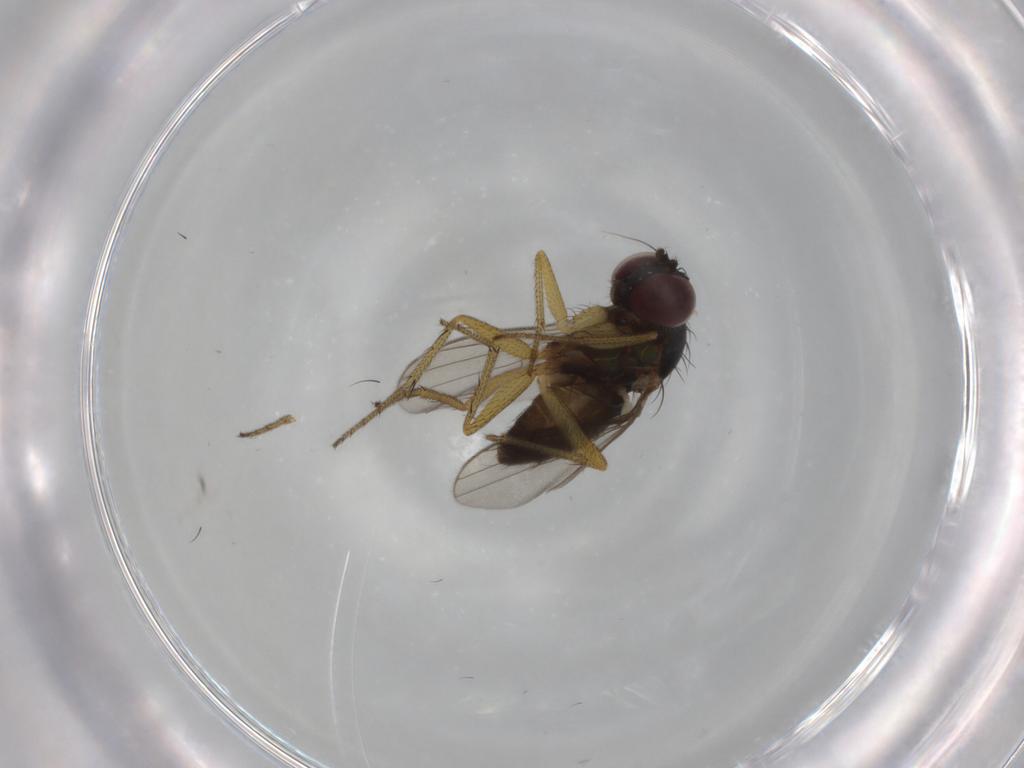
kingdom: Animalia
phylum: Arthropoda
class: Insecta
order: Diptera
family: Dolichopodidae
